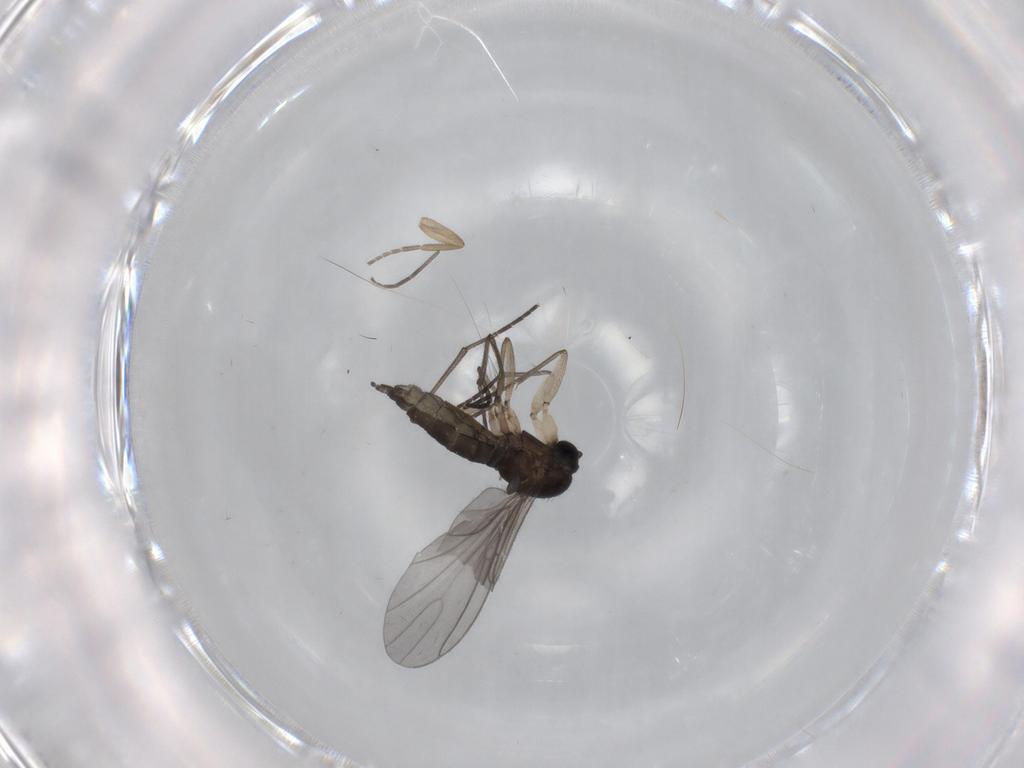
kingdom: Animalia
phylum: Arthropoda
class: Insecta
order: Diptera
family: Phoridae
